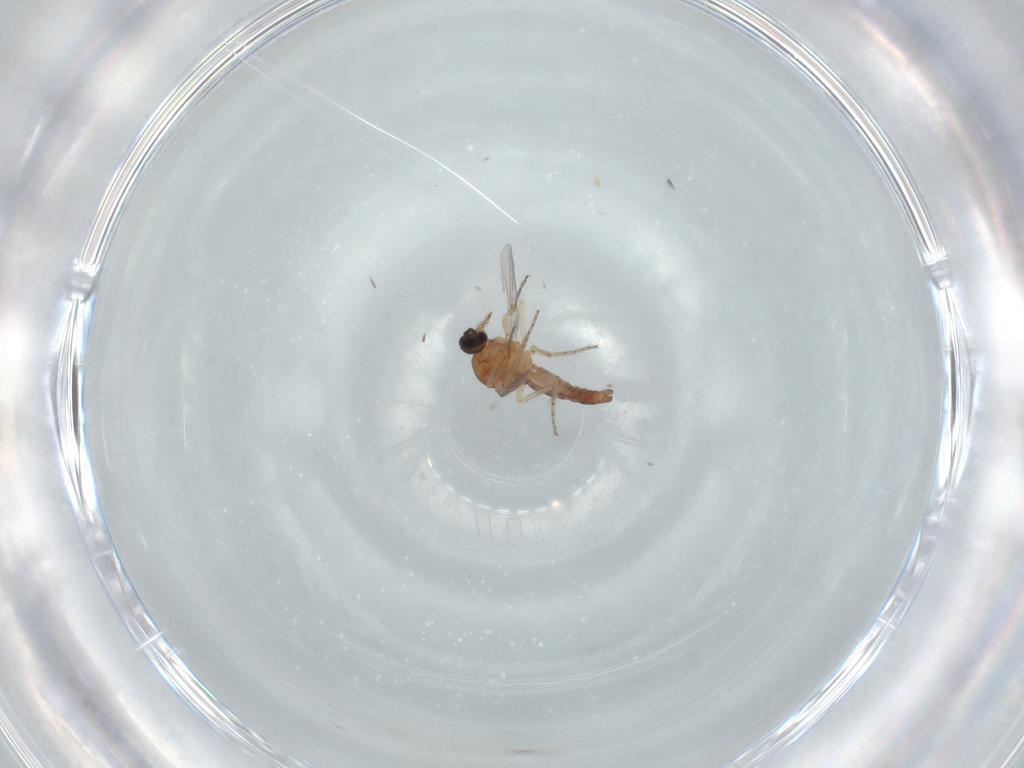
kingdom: Animalia
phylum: Arthropoda
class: Insecta
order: Diptera
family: Ceratopogonidae
